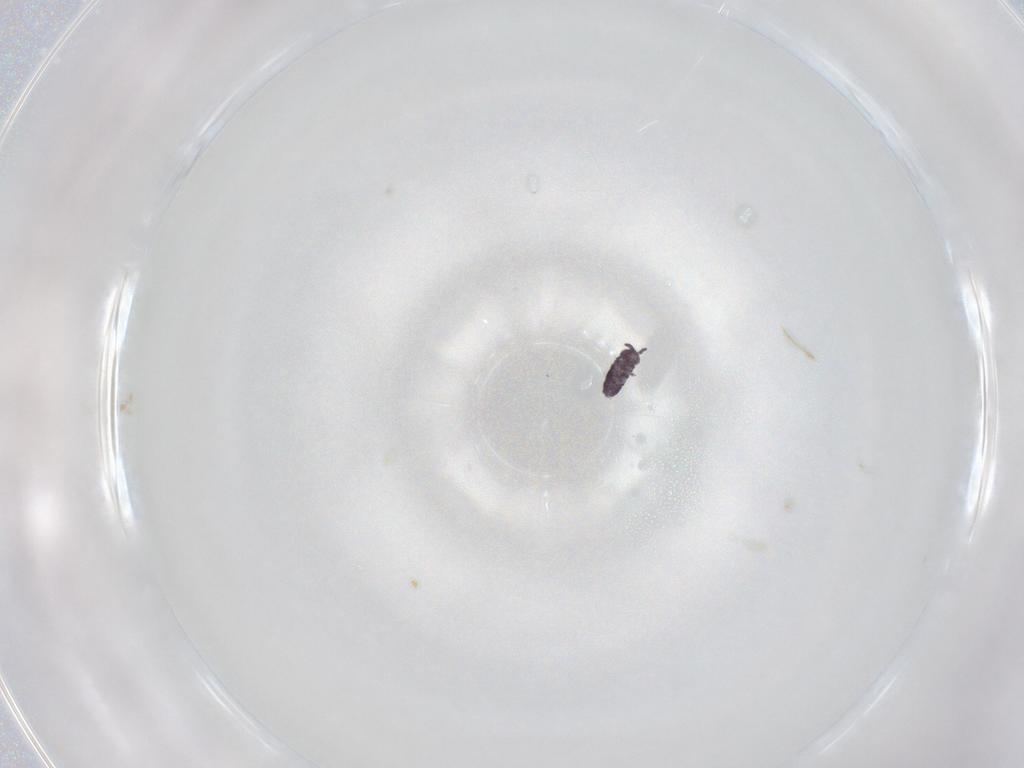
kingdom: Animalia
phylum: Arthropoda
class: Collembola
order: Poduromorpha
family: Brachystomellidae
